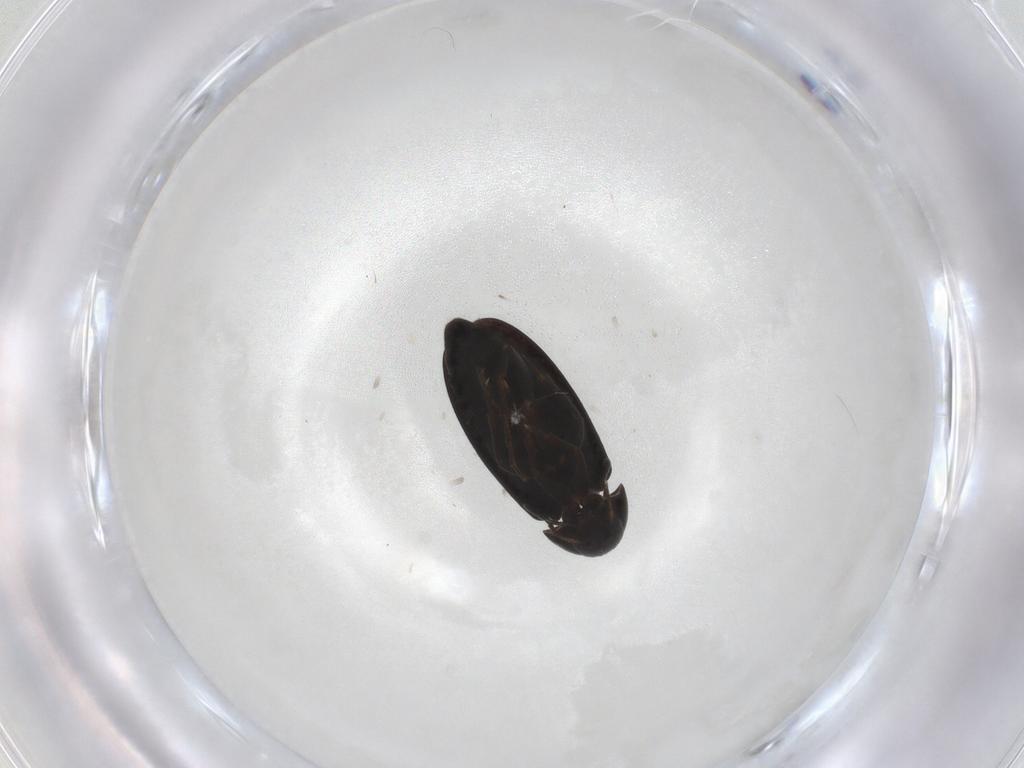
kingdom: Animalia
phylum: Arthropoda
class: Insecta
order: Coleoptera
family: Scraptiidae
